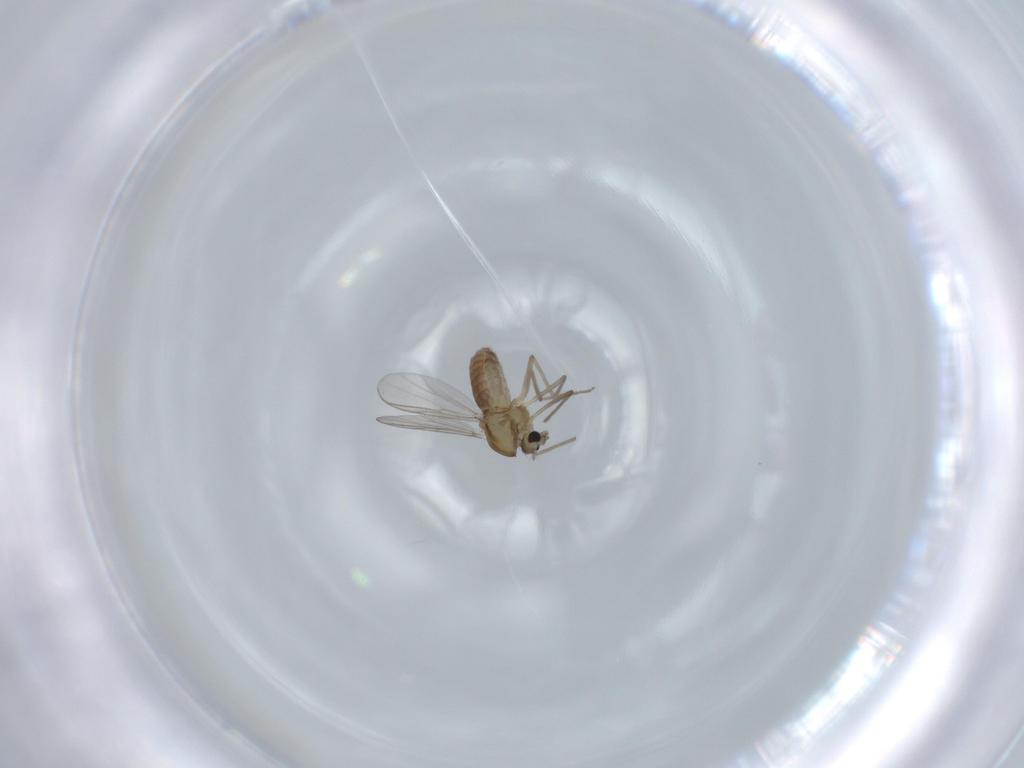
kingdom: Animalia
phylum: Arthropoda
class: Insecta
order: Diptera
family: Chironomidae
